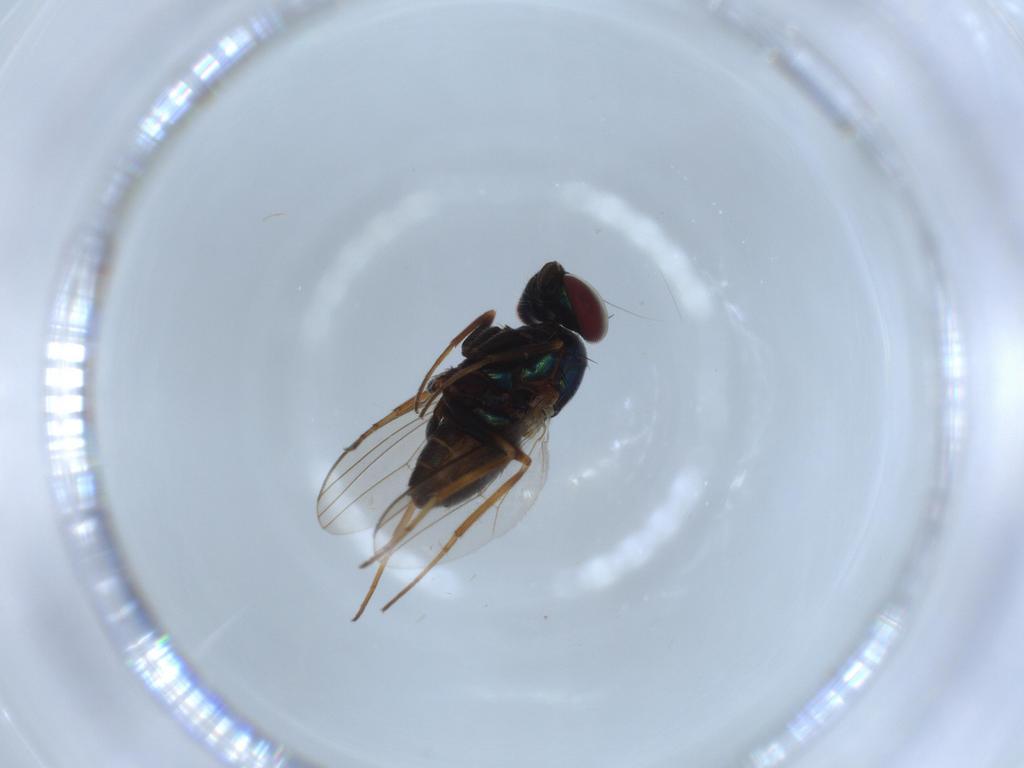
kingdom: Animalia
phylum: Arthropoda
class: Insecta
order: Diptera
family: Dolichopodidae
